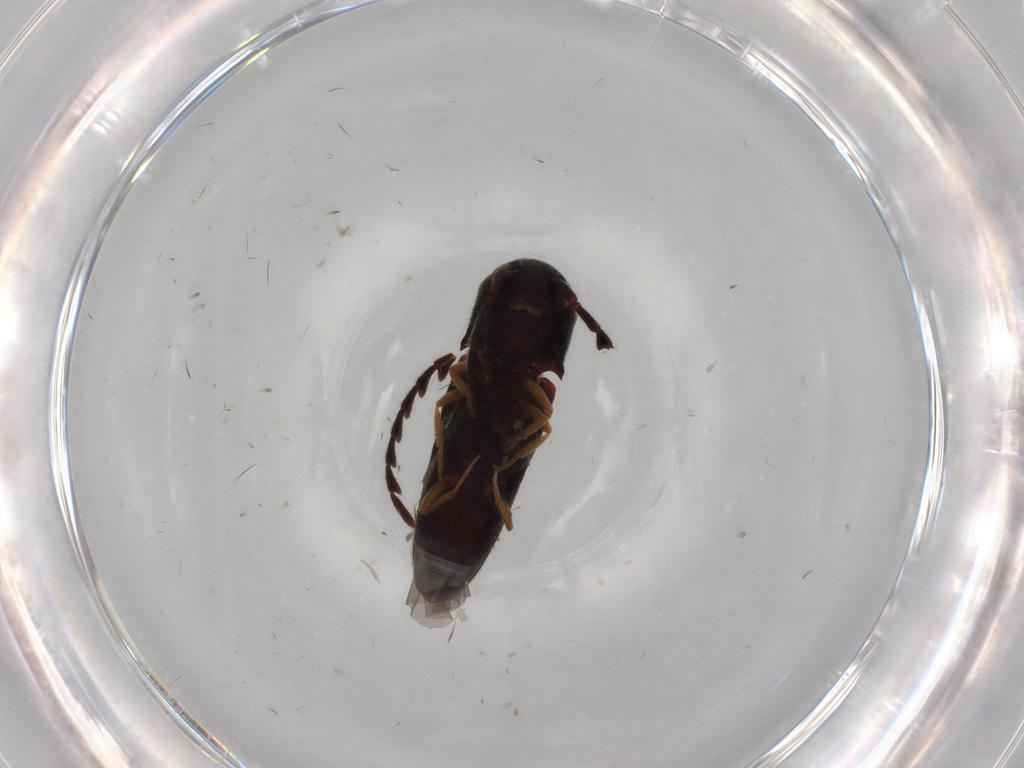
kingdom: Animalia
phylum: Arthropoda
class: Insecta
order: Coleoptera
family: Eucnemidae
